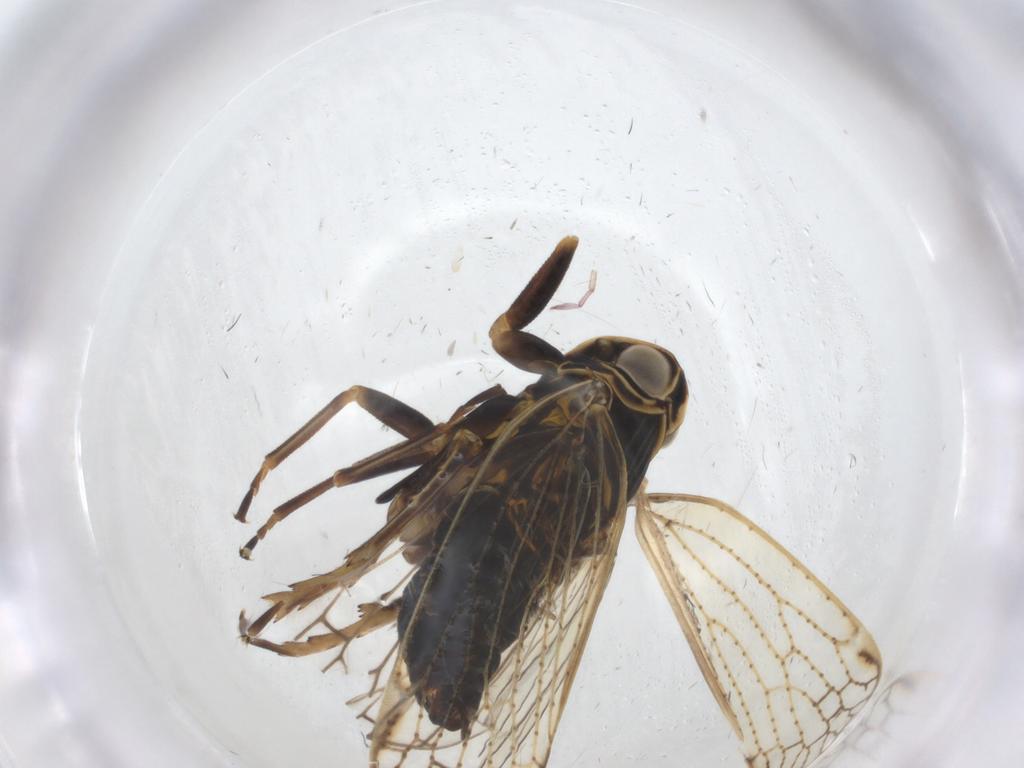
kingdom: Animalia
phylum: Arthropoda
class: Insecta
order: Hemiptera
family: Cixiidae
